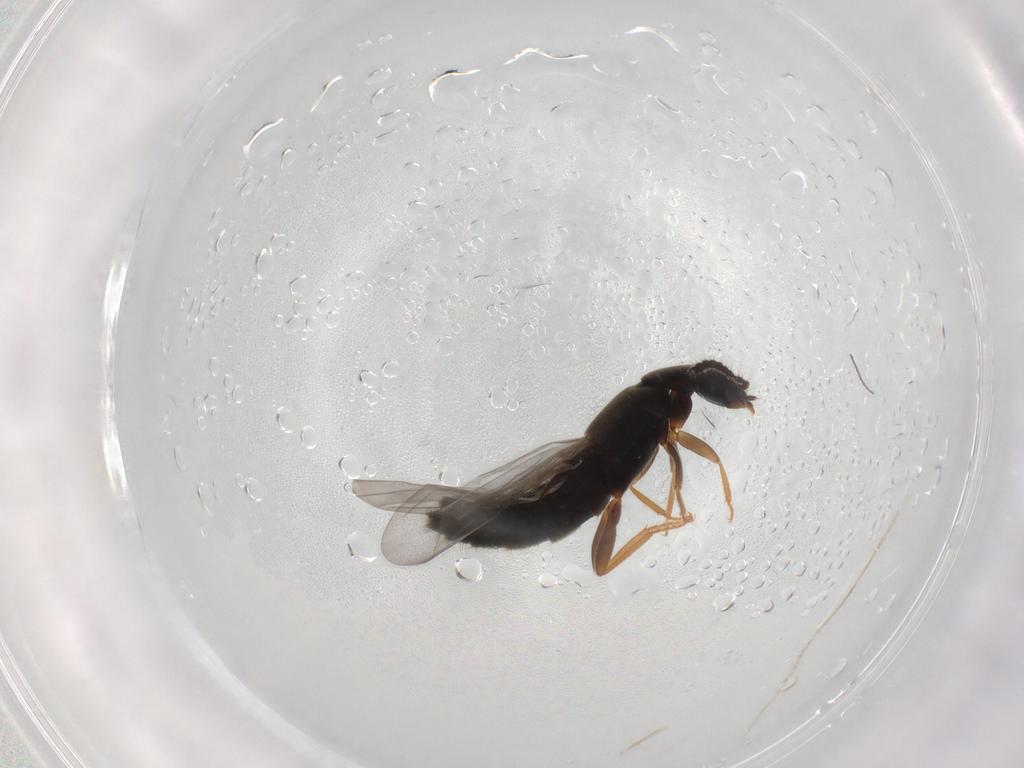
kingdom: Animalia
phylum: Arthropoda
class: Insecta
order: Coleoptera
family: Staphylinidae
